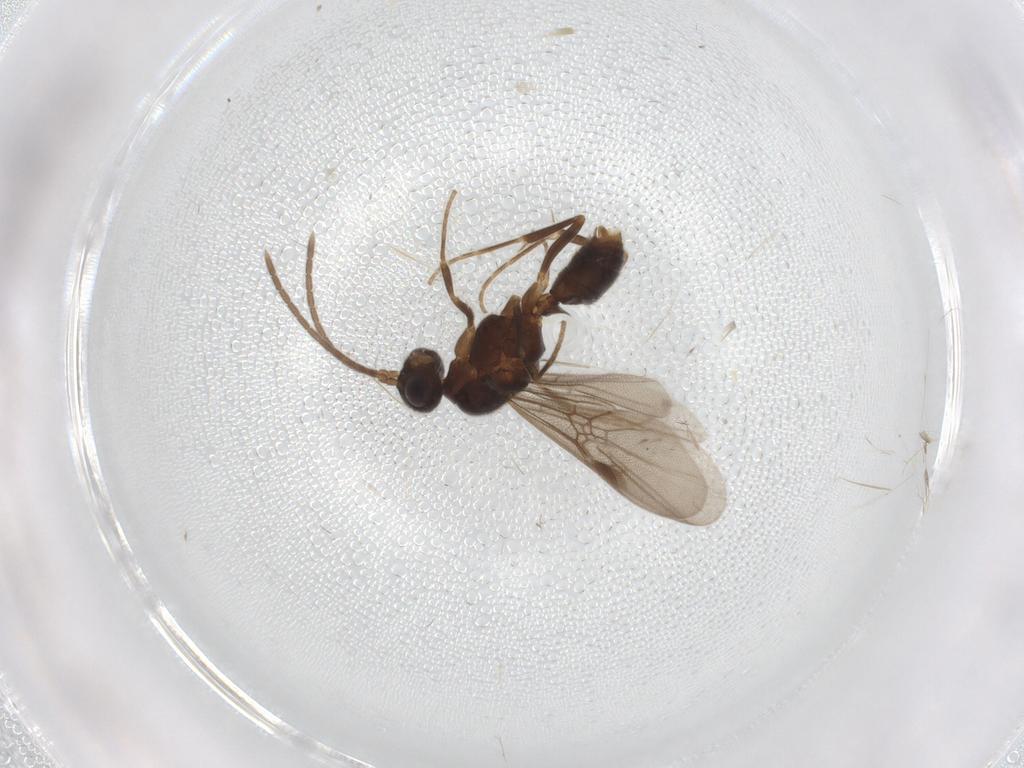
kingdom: Animalia
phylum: Arthropoda
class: Insecta
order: Hymenoptera
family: Formicidae
